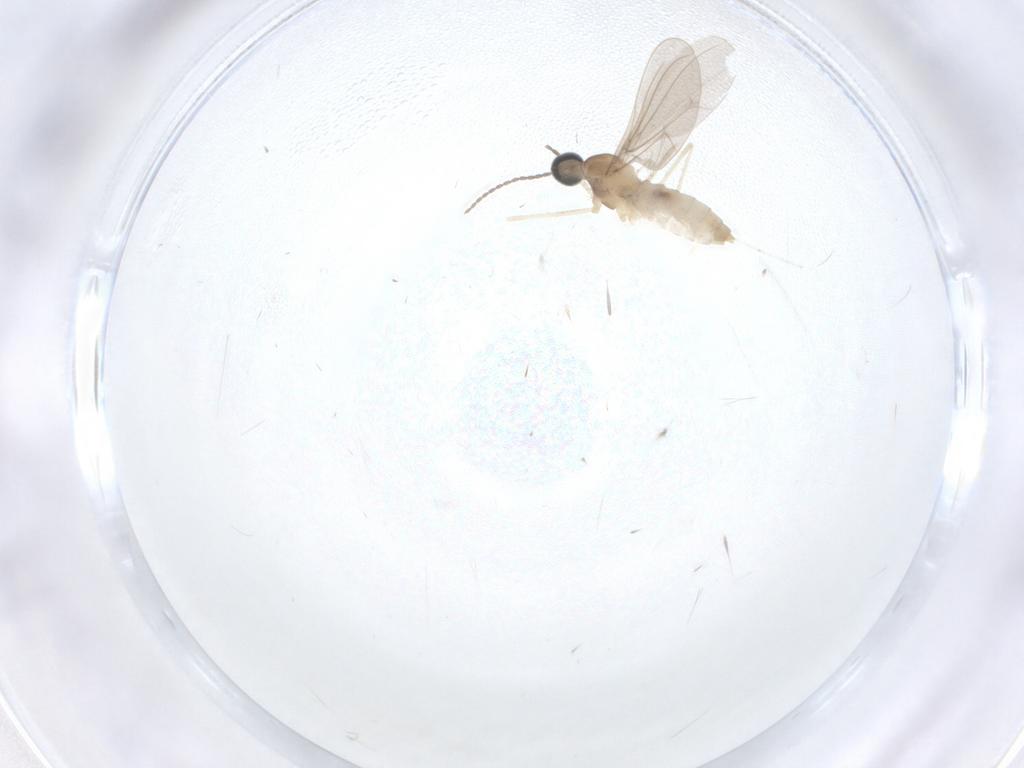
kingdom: Animalia
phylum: Arthropoda
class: Insecta
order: Diptera
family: Cecidomyiidae
